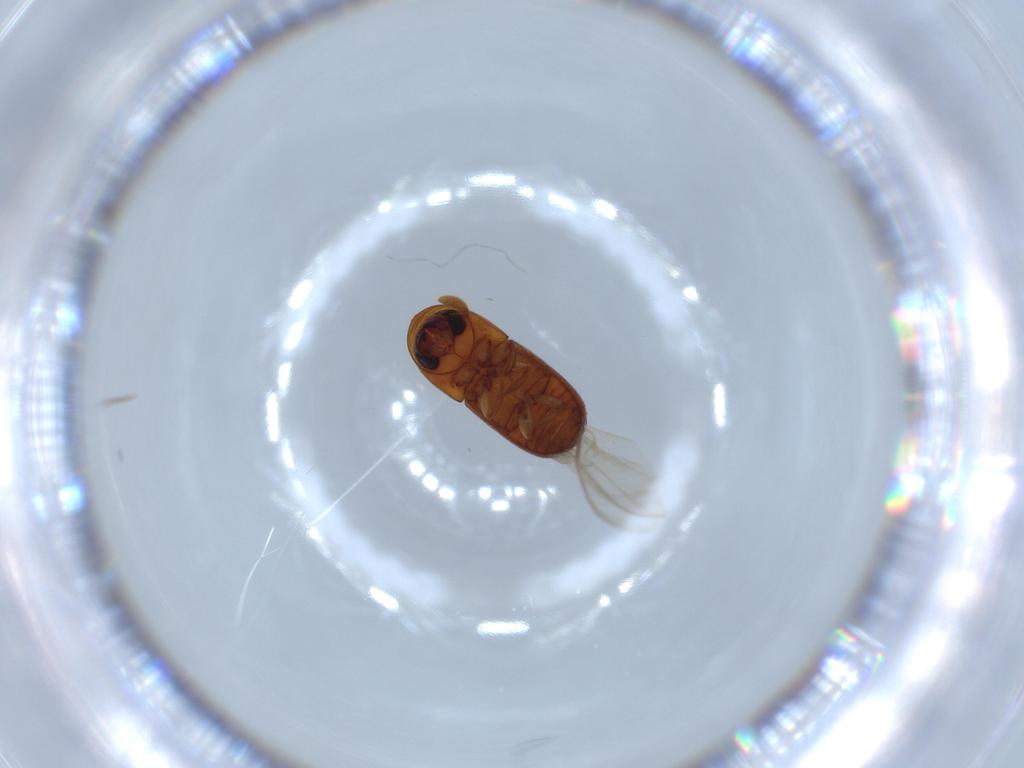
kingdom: Animalia
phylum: Arthropoda
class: Insecta
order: Coleoptera
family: Curculionidae
